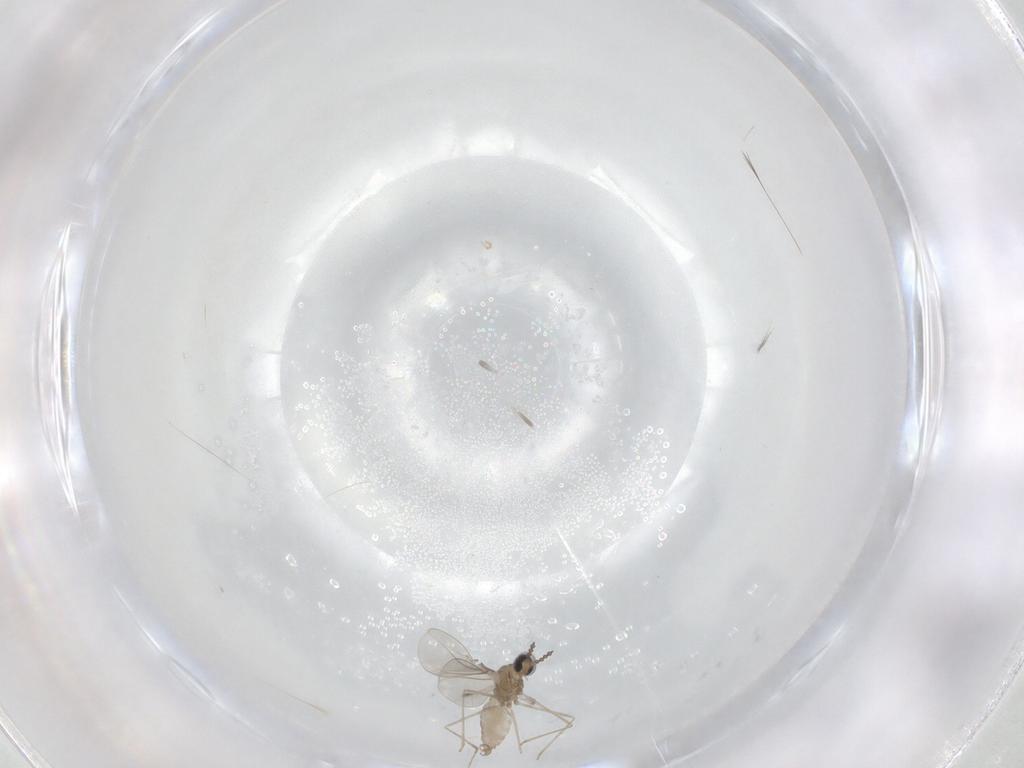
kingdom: Animalia
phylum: Arthropoda
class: Insecta
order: Diptera
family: Cecidomyiidae
